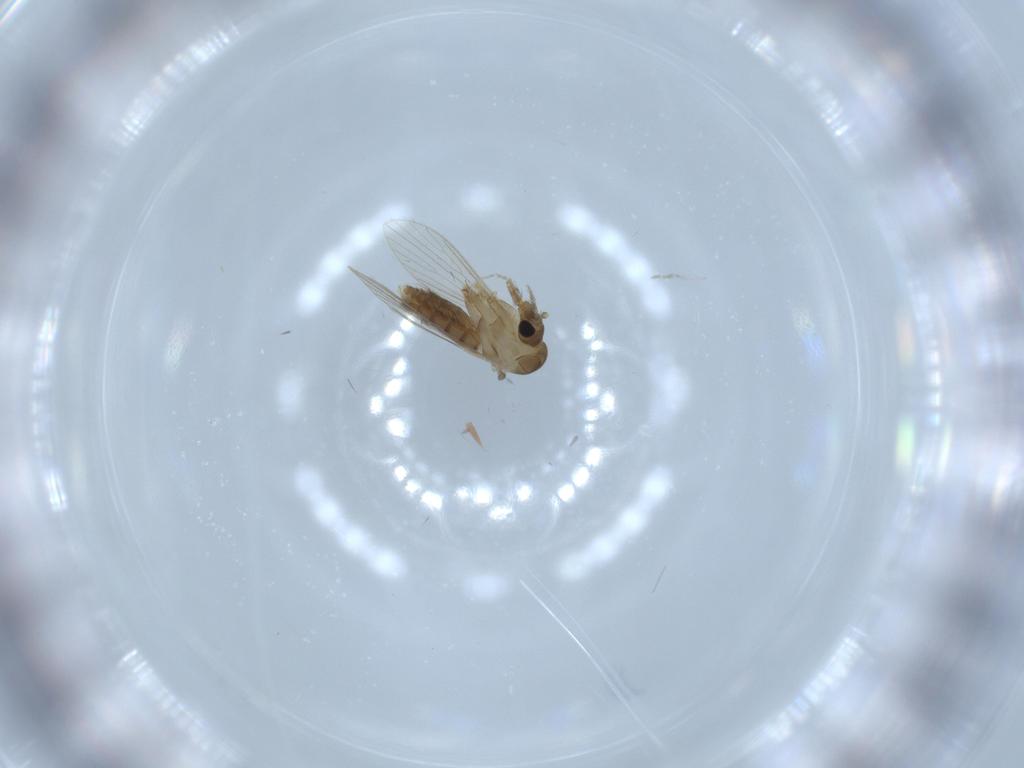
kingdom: Animalia
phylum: Arthropoda
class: Insecta
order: Diptera
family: Psychodidae
